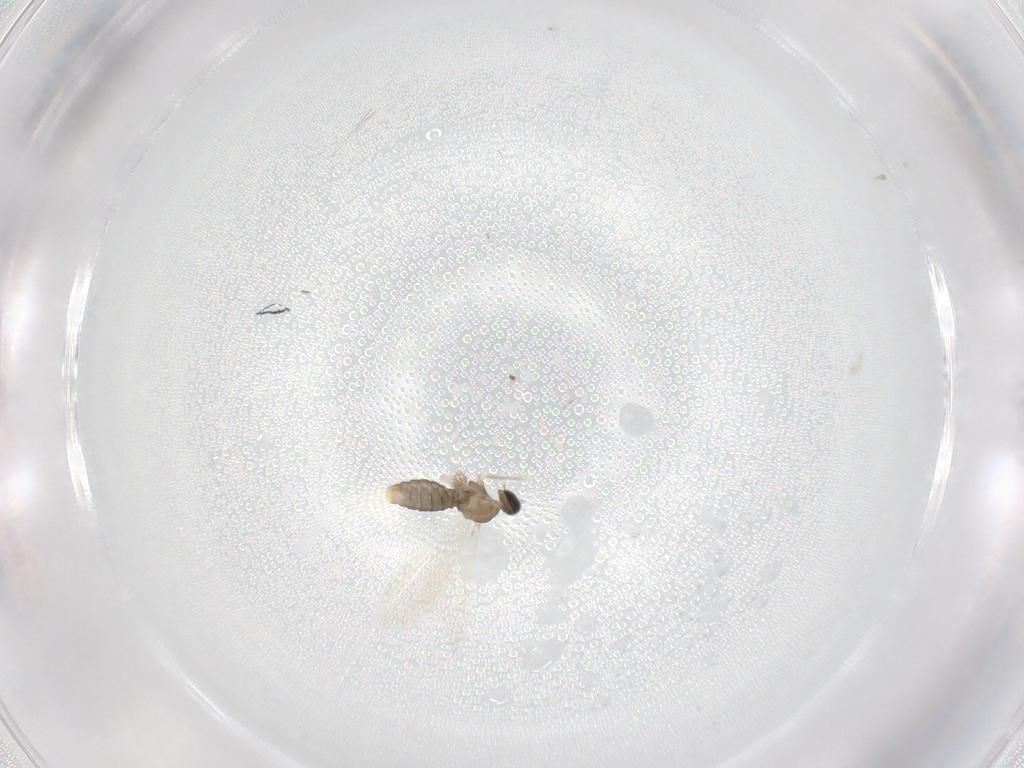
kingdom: Animalia
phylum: Arthropoda
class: Insecta
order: Diptera
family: Cecidomyiidae
